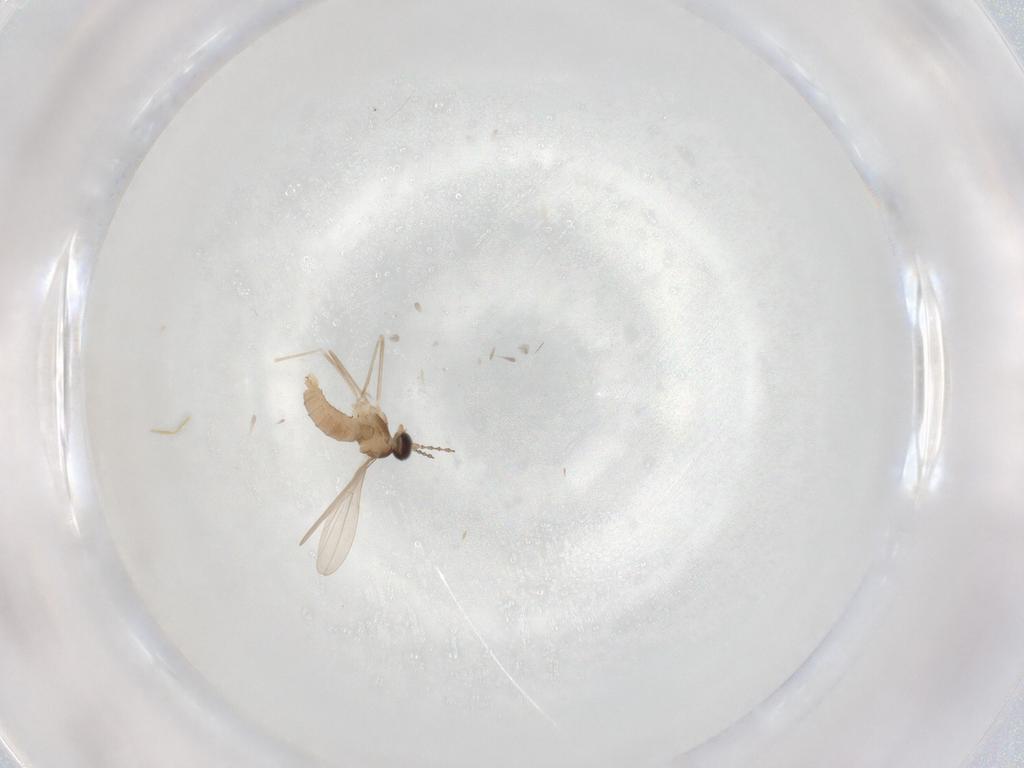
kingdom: Animalia
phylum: Arthropoda
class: Insecta
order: Diptera
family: Cecidomyiidae
